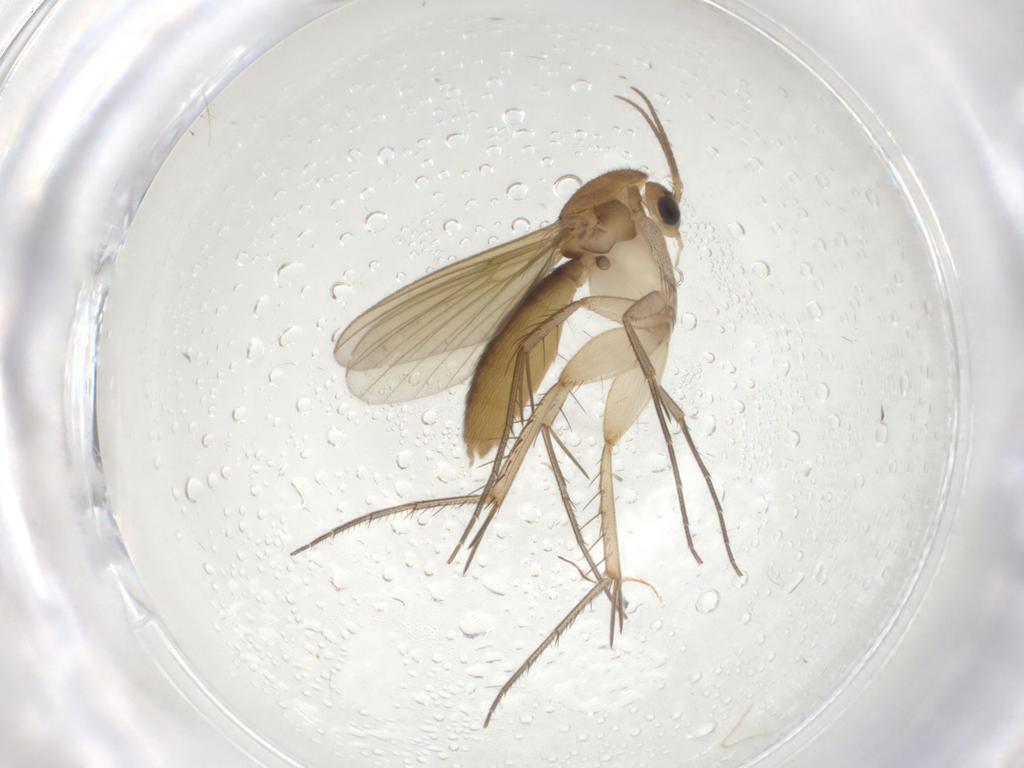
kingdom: Animalia
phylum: Arthropoda
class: Insecta
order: Diptera
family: Mycetophilidae
